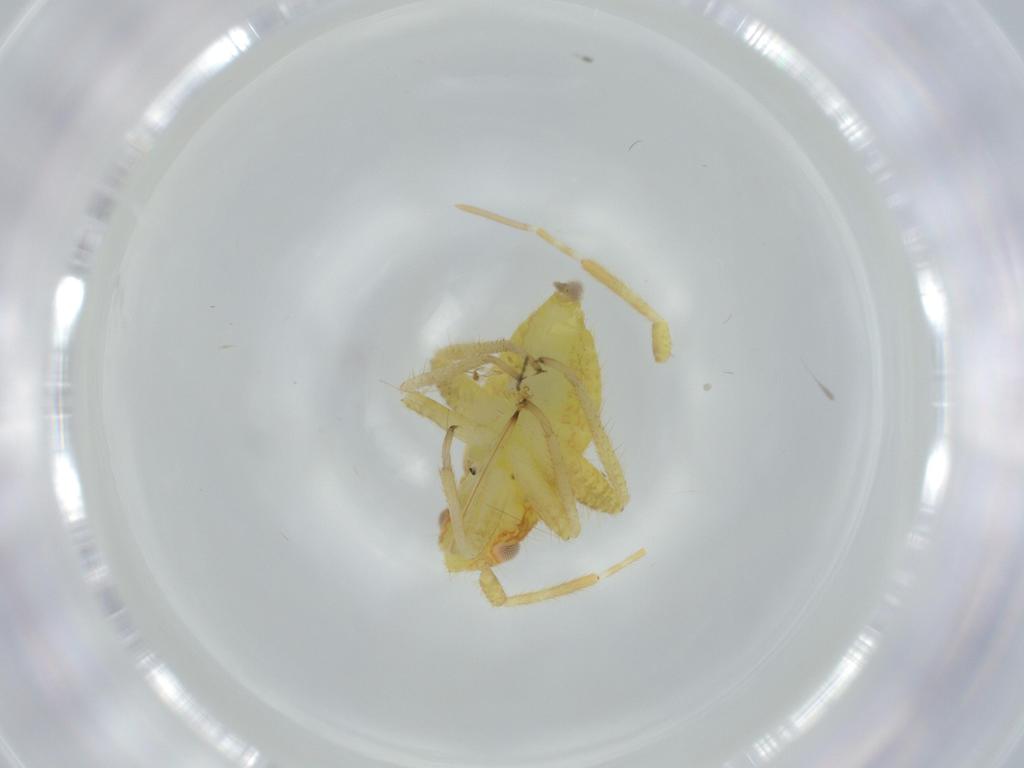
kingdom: Animalia
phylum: Arthropoda
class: Insecta
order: Hemiptera
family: Miridae
